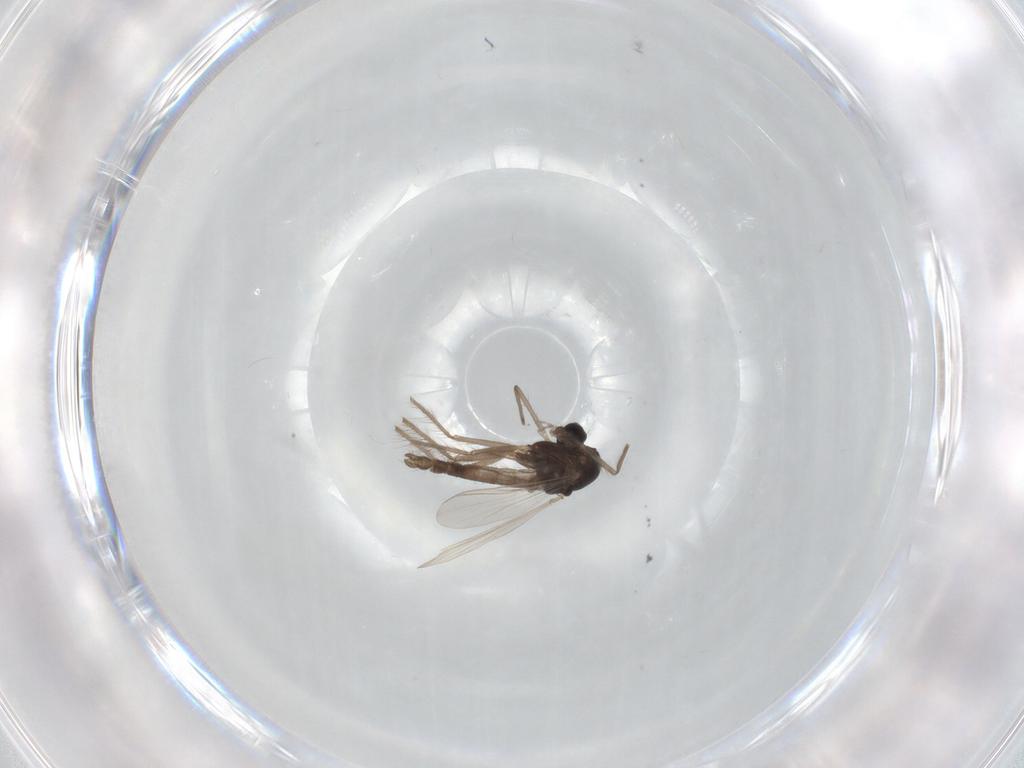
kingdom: Animalia
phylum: Arthropoda
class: Insecta
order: Diptera
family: Chironomidae
